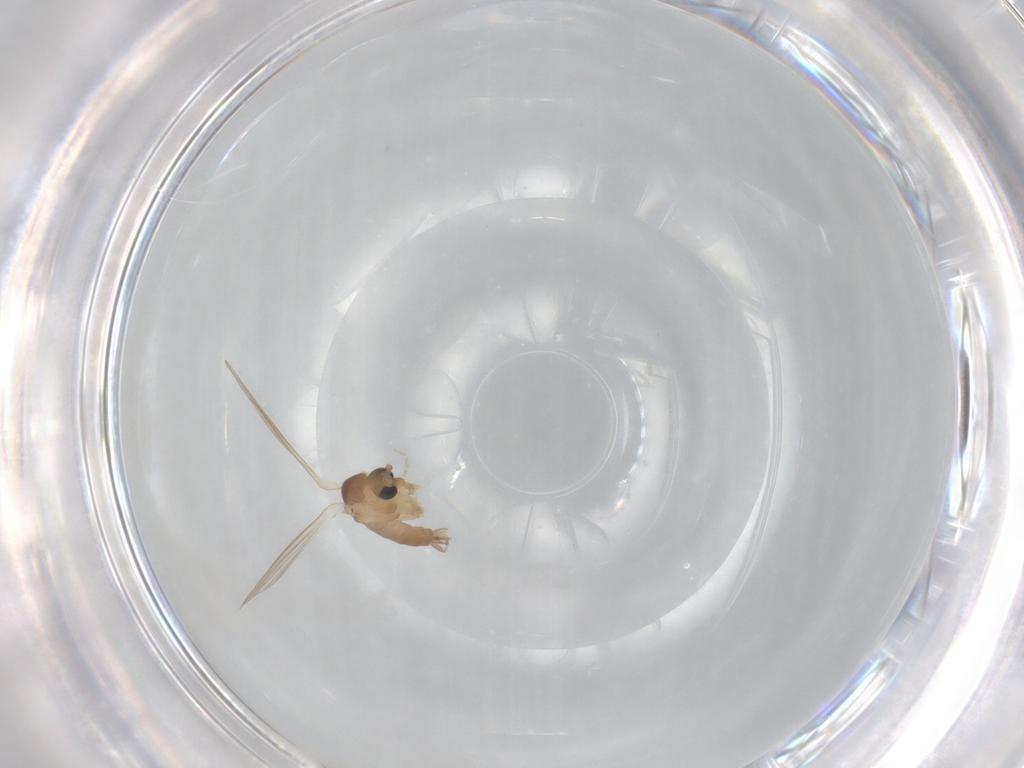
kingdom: Animalia
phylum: Arthropoda
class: Insecta
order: Diptera
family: Psychodidae
